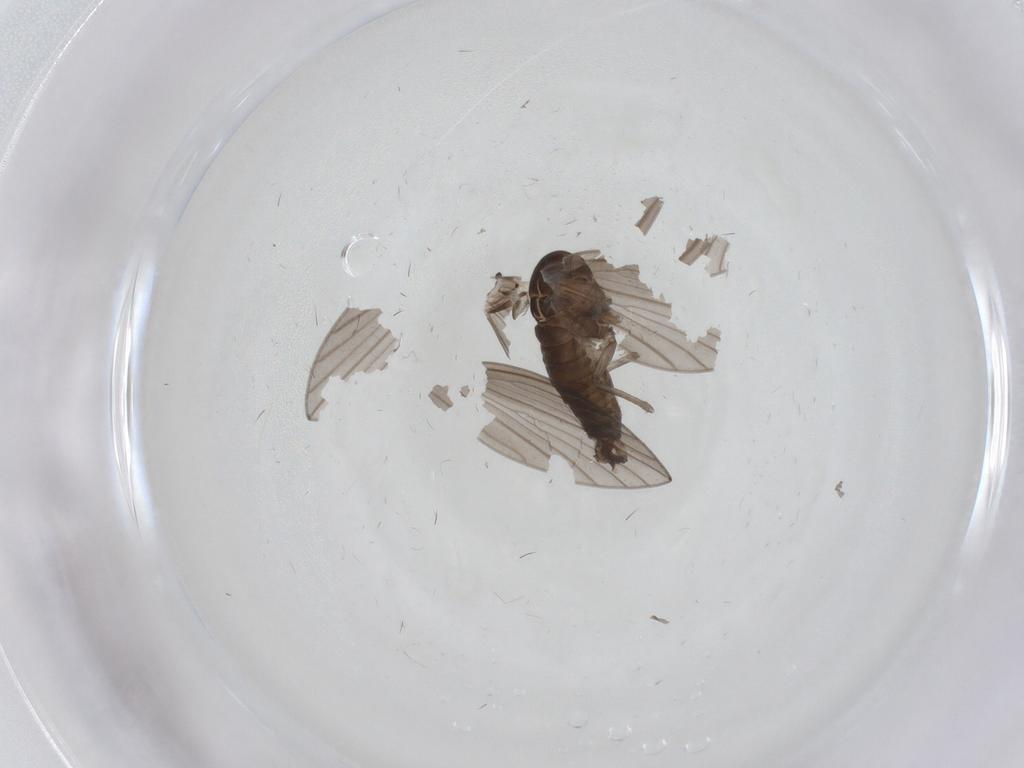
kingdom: Animalia
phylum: Arthropoda
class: Insecta
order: Diptera
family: Psychodidae
